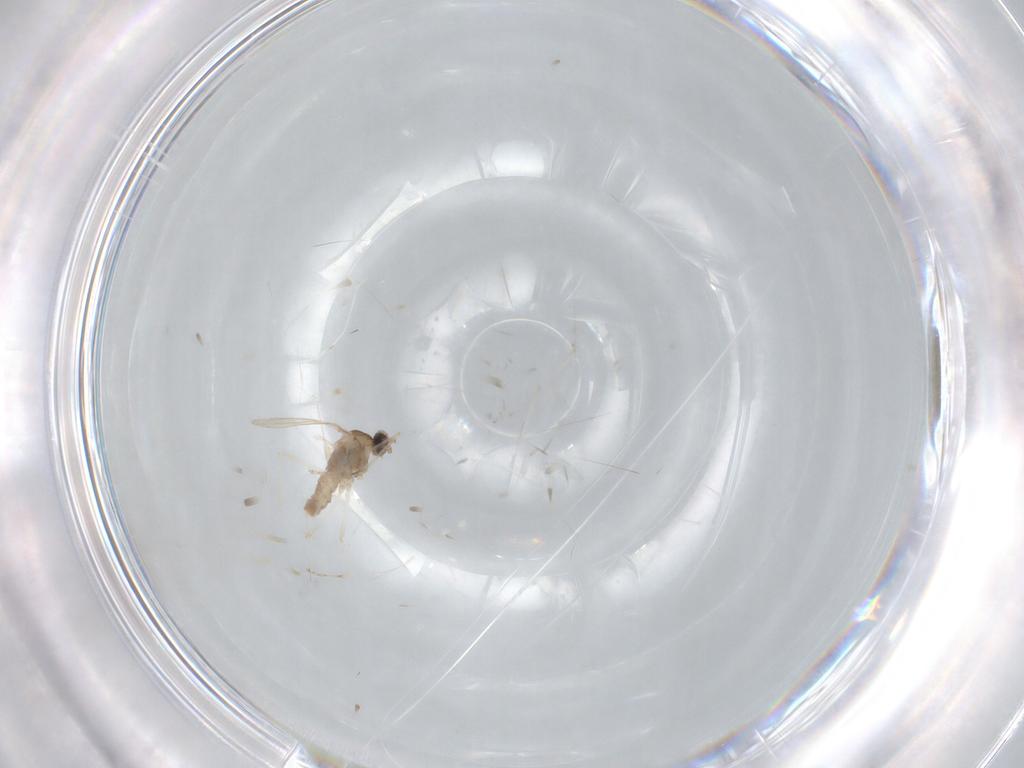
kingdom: Animalia
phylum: Arthropoda
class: Insecta
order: Diptera
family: Cecidomyiidae
